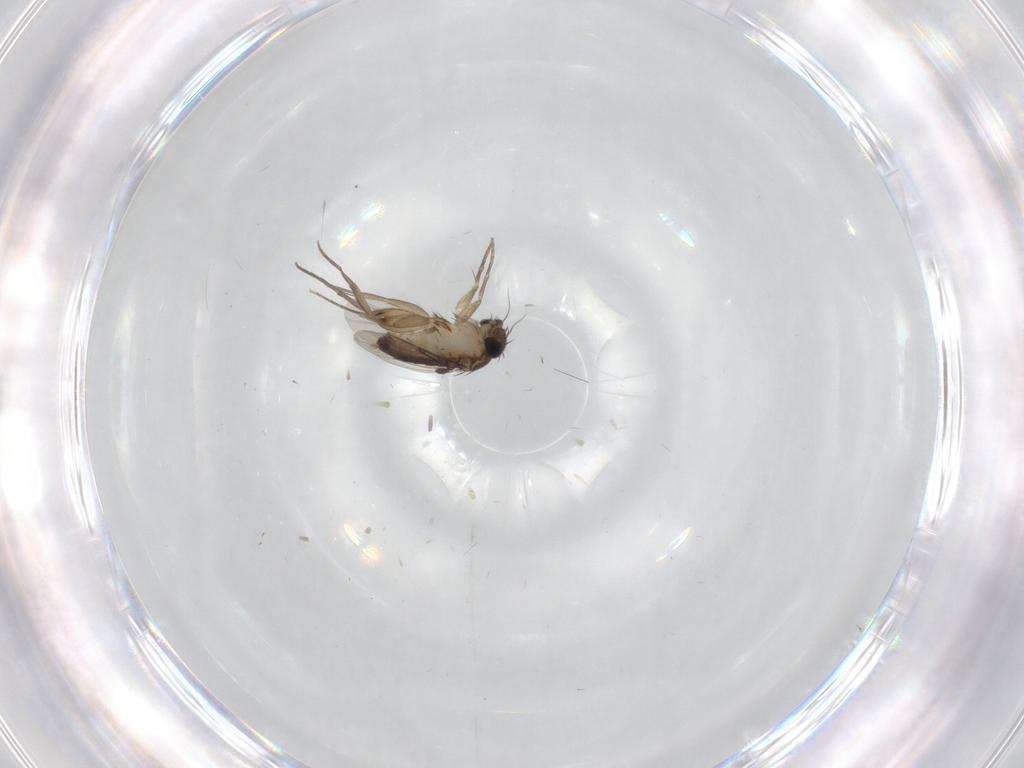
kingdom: Animalia
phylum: Arthropoda
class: Insecta
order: Diptera
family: Phoridae
